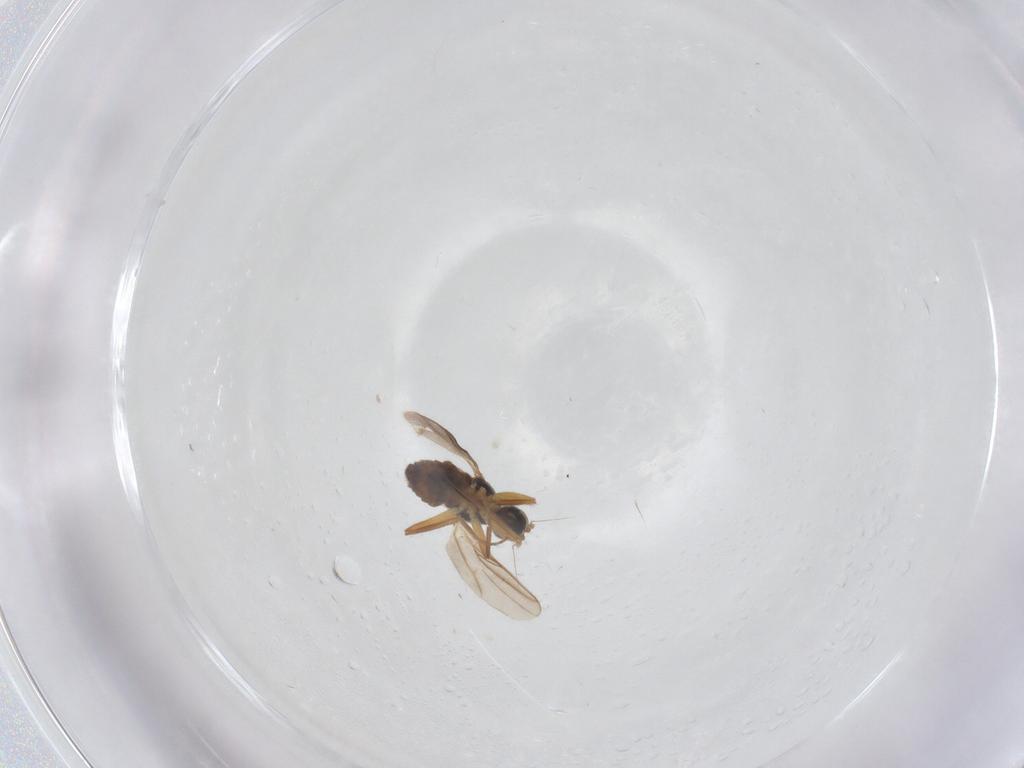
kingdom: Animalia
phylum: Arthropoda
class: Insecta
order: Diptera
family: Hybotidae
